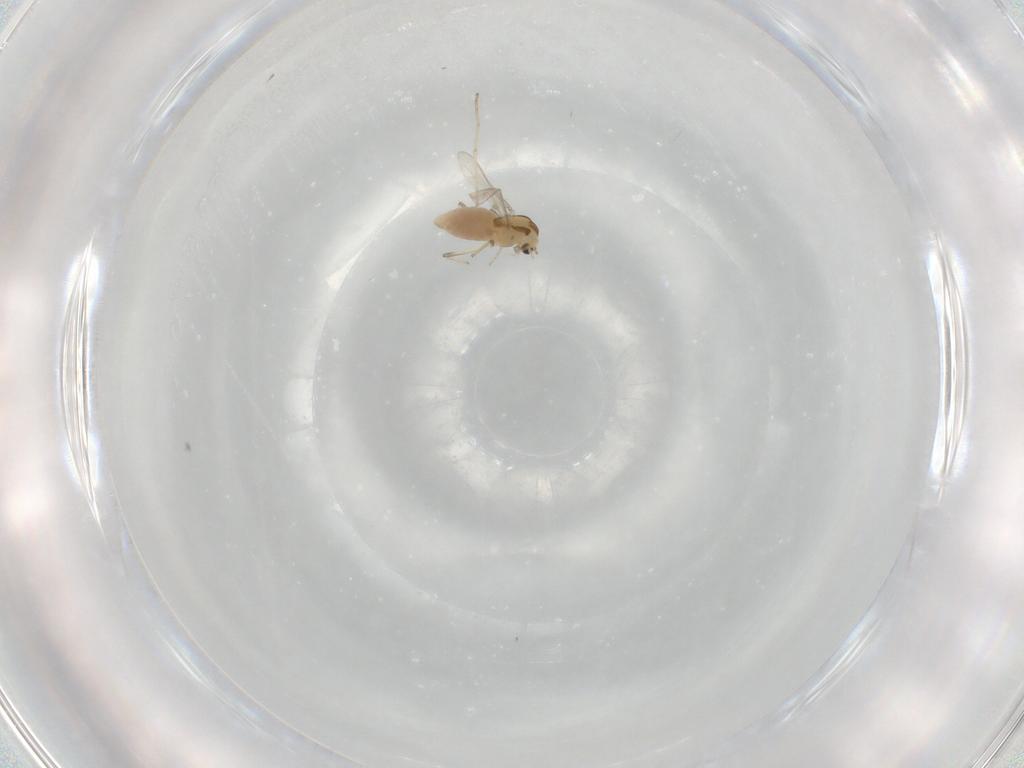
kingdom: Animalia
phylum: Arthropoda
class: Insecta
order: Diptera
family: Chironomidae
